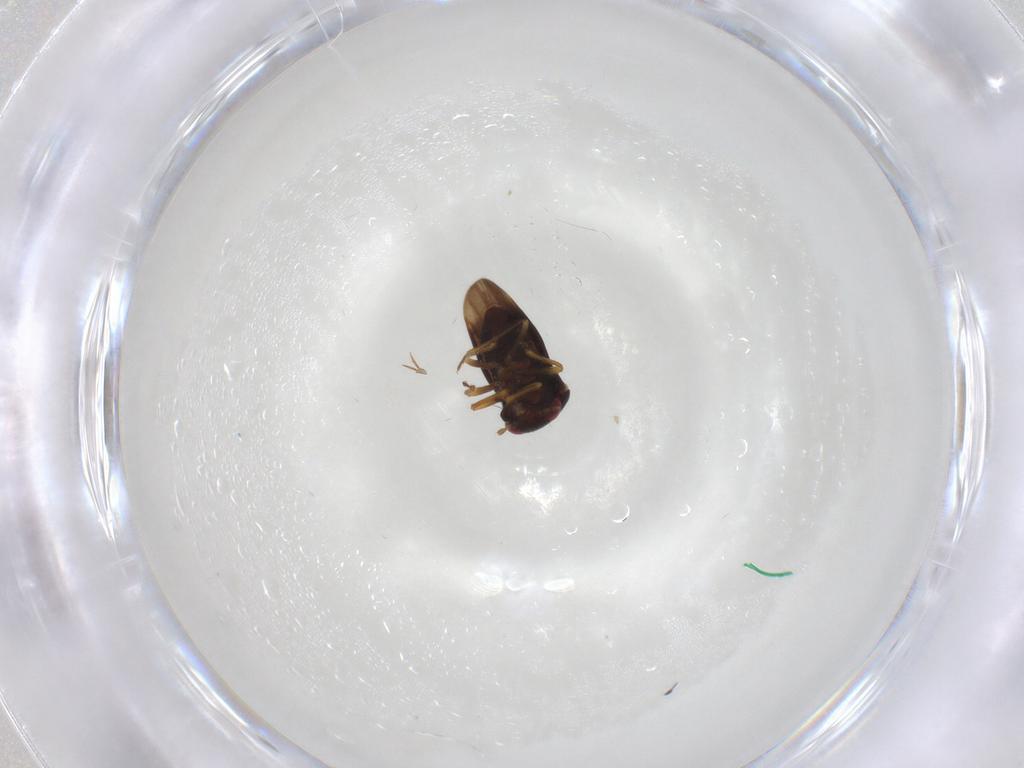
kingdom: Animalia
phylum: Arthropoda
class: Insecta
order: Hemiptera
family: Schizopteridae
